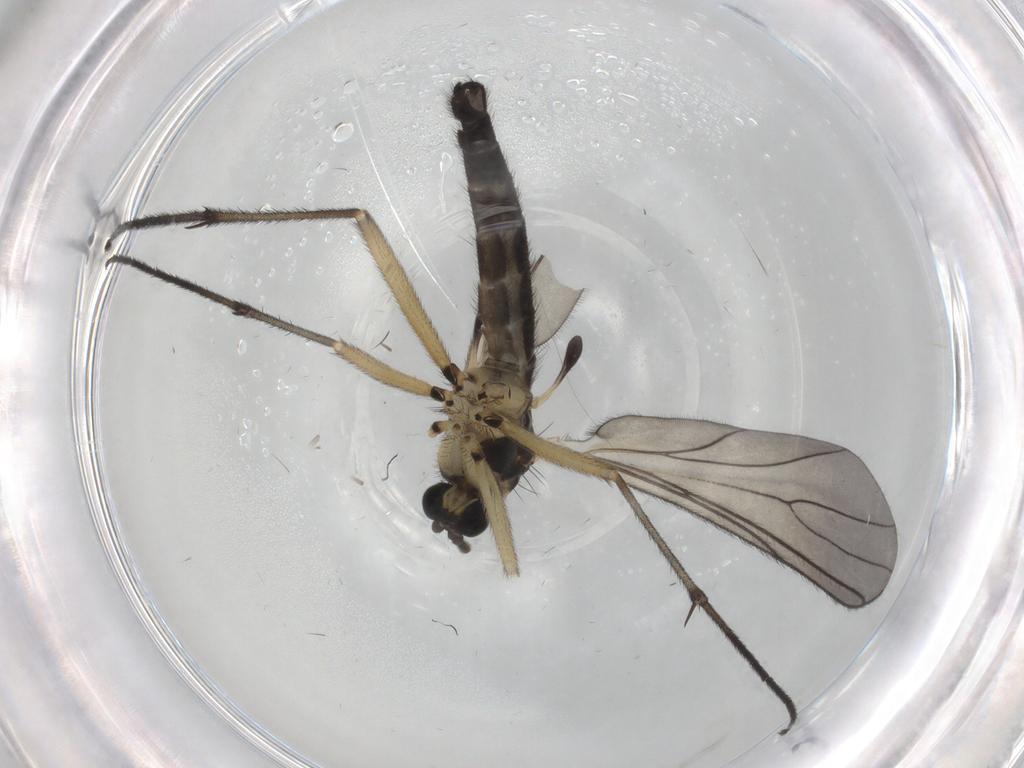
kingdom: Animalia
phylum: Arthropoda
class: Insecta
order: Diptera
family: Sciaridae
